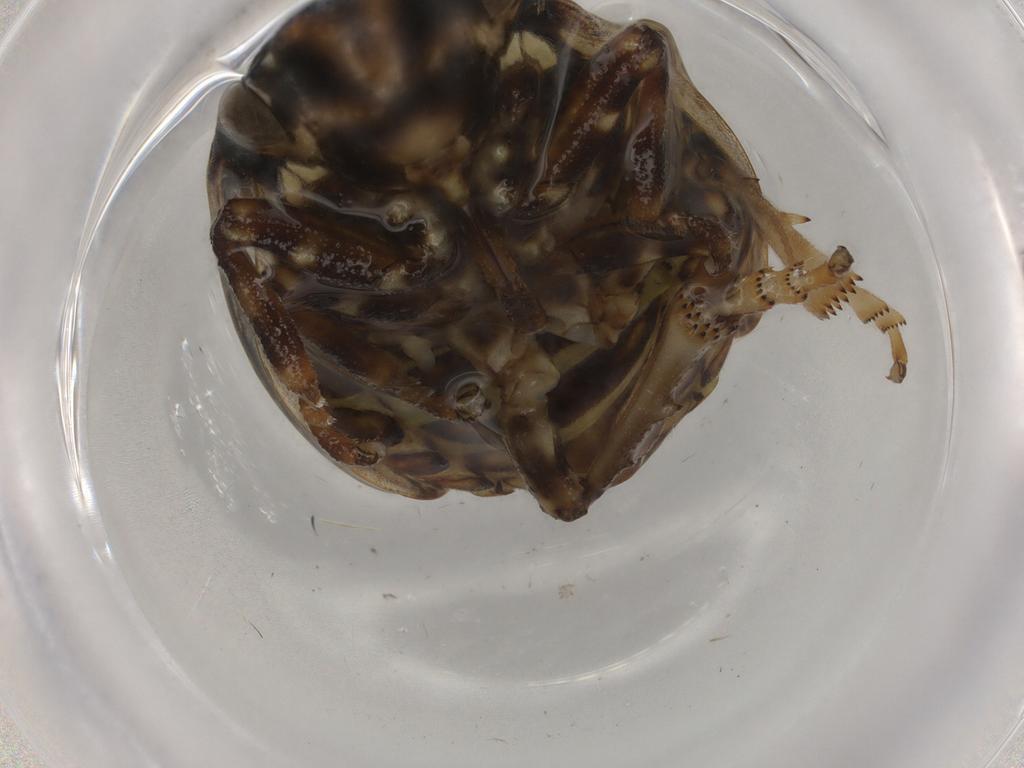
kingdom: Animalia
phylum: Arthropoda
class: Insecta
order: Hemiptera
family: Aphrophoridae
